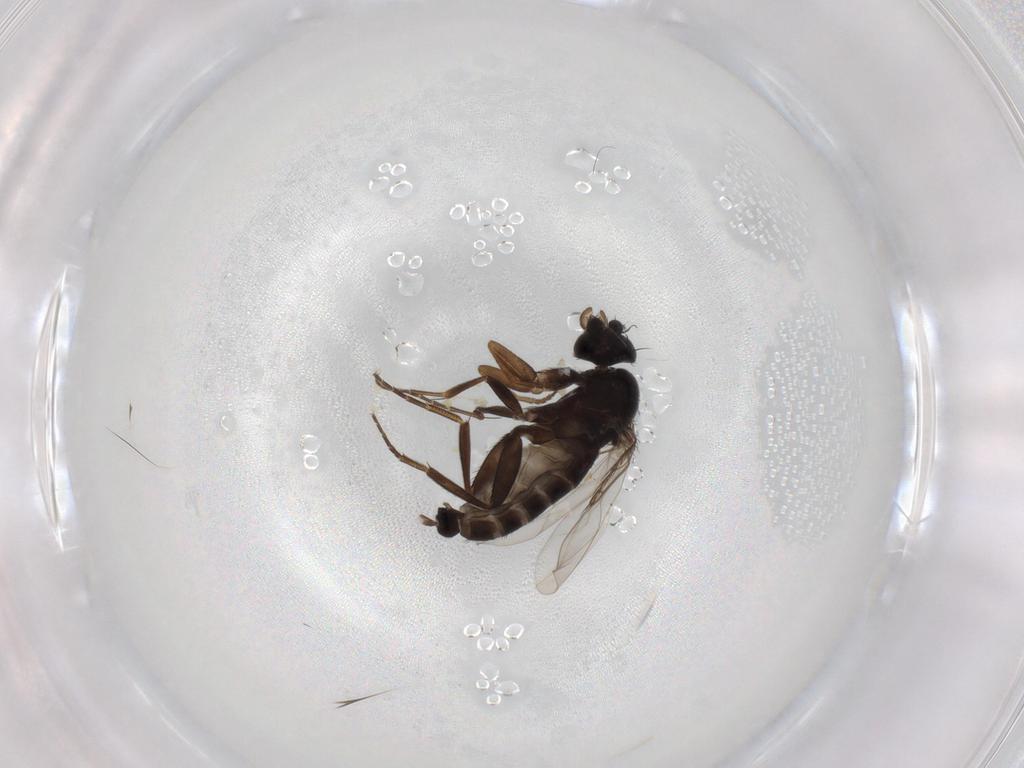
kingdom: Animalia
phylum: Arthropoda
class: Insecta
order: Diptera
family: Phoridae
